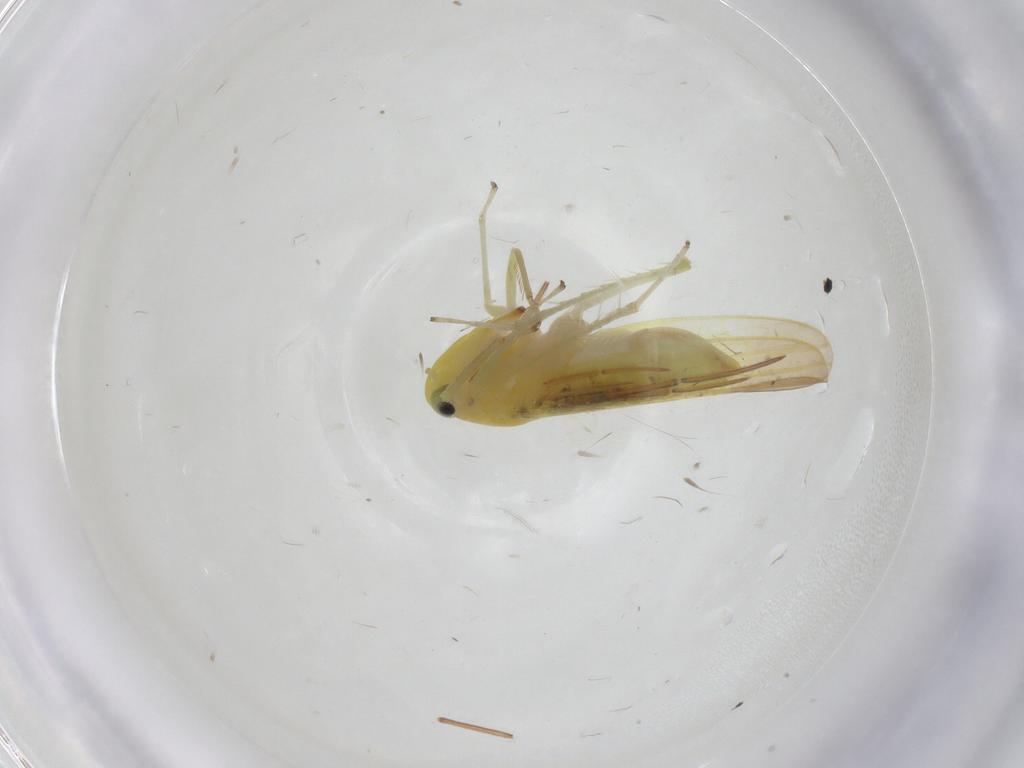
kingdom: Animalia
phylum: Arthropoda
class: Insecta
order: Hemiptera
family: Cicadellidae
